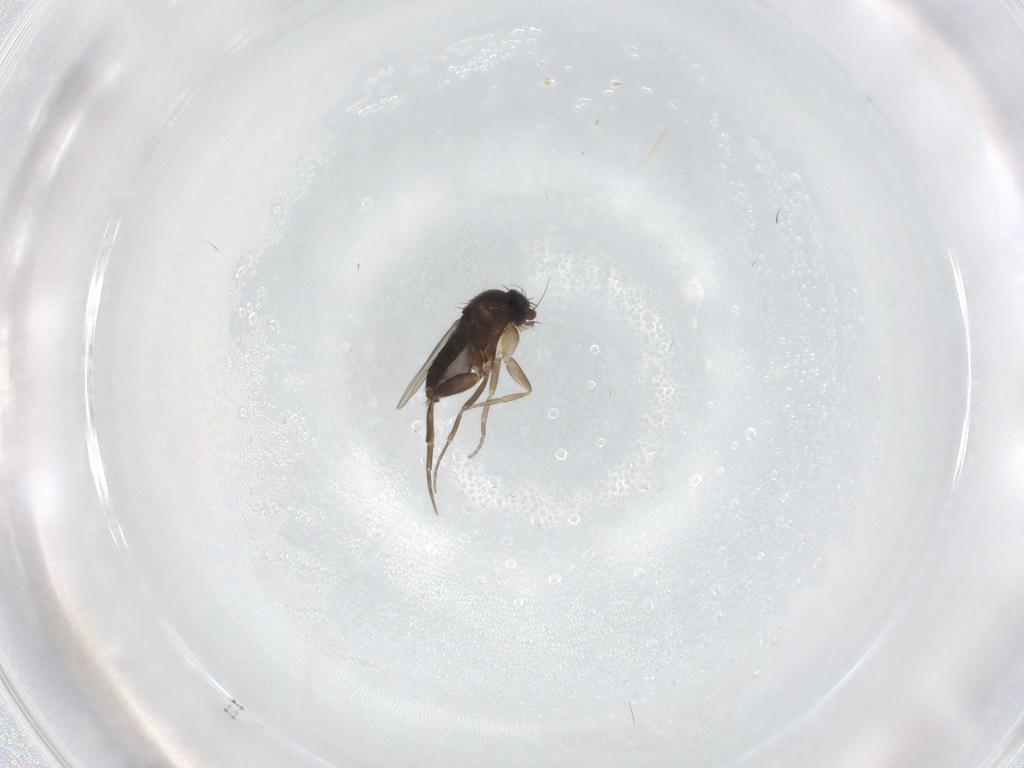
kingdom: Animalia
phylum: Arthropoda
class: Insecta
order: Diptera
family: Phoridae
